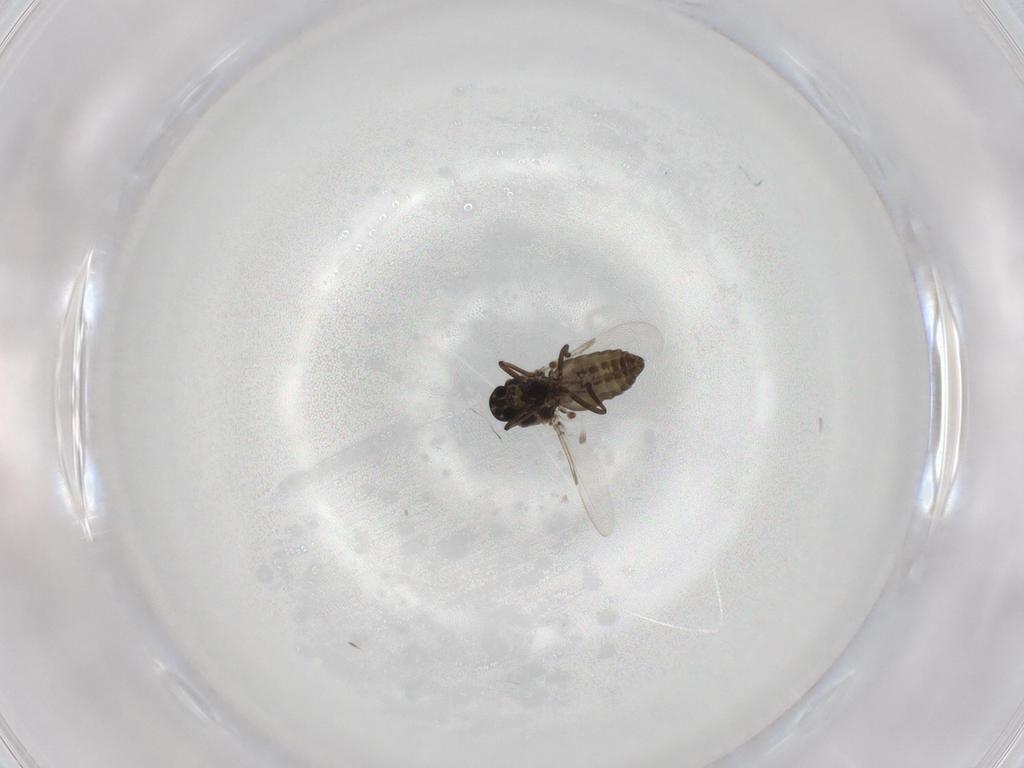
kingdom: Animalia
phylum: Arthropoda
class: Insecta
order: Diptera
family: Ceratopogonidae
